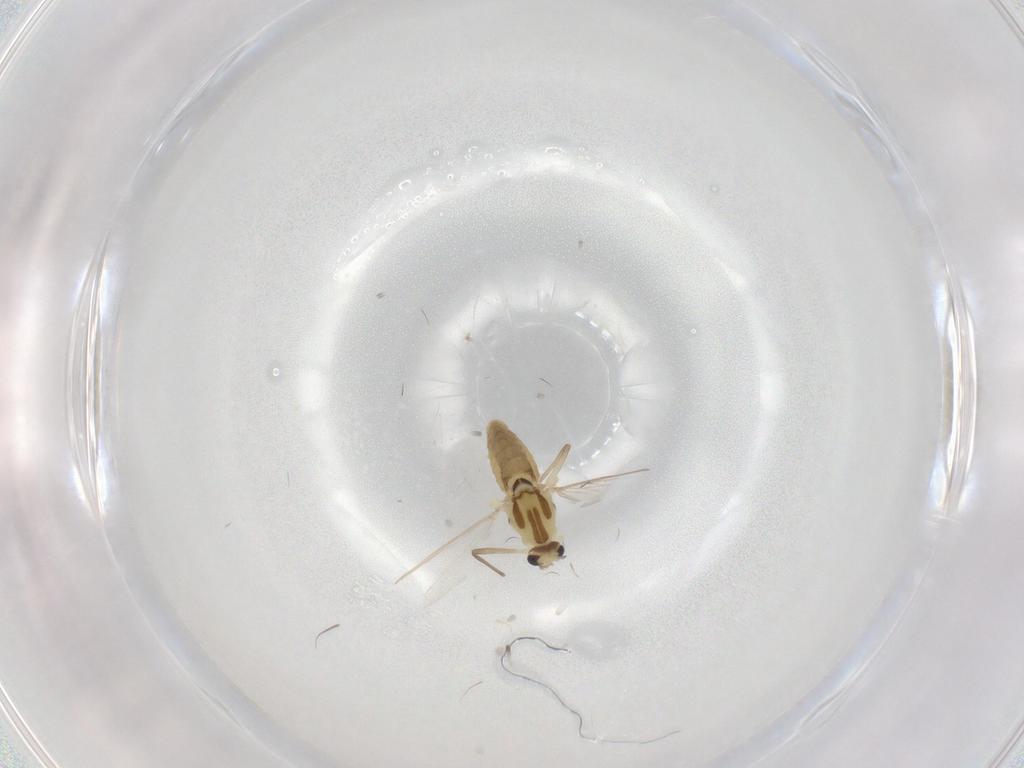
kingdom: Animalia
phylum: Arthropoda
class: Insecta
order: Diptera
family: Chironomidae
